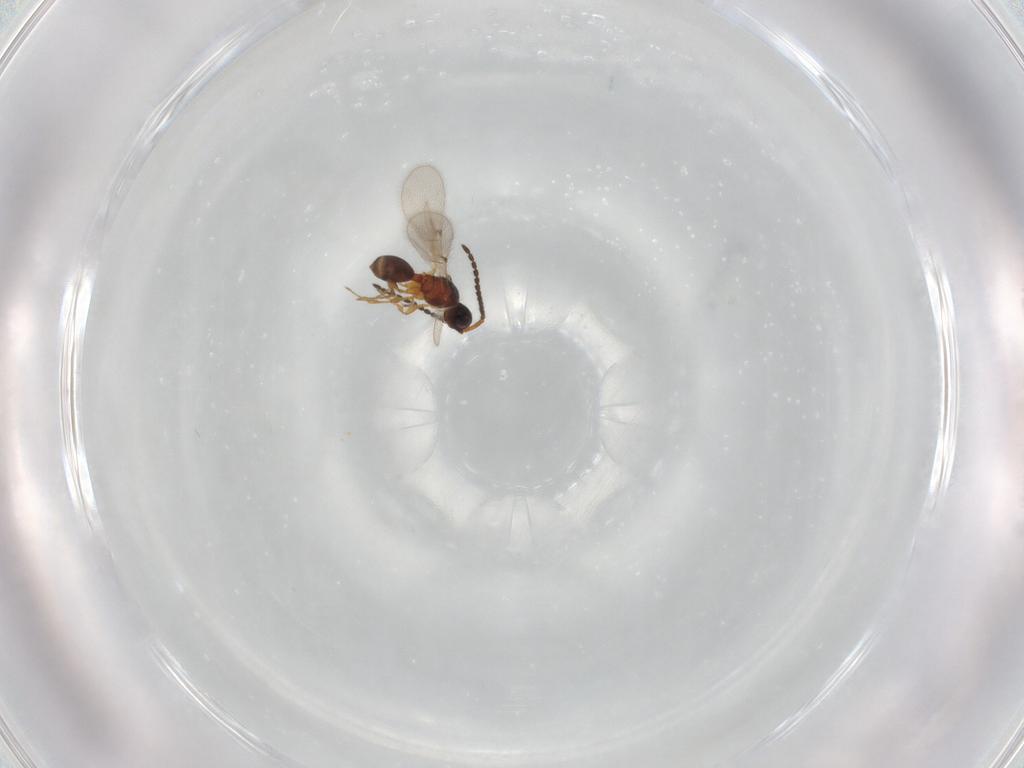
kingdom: Animalia
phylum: Arthropoda
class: Insecta
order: Hymenoptera
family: Diapriidae
